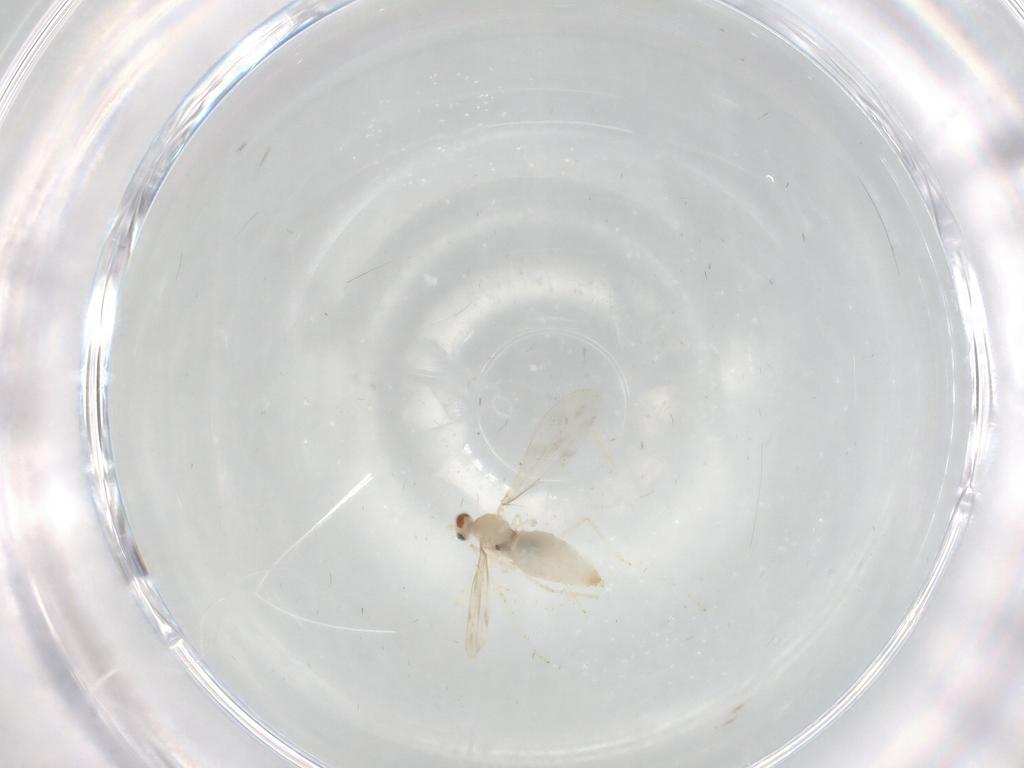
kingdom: Animalia
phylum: Arthropoda
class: Insecta
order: Diptera
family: Cecidomyiidae
